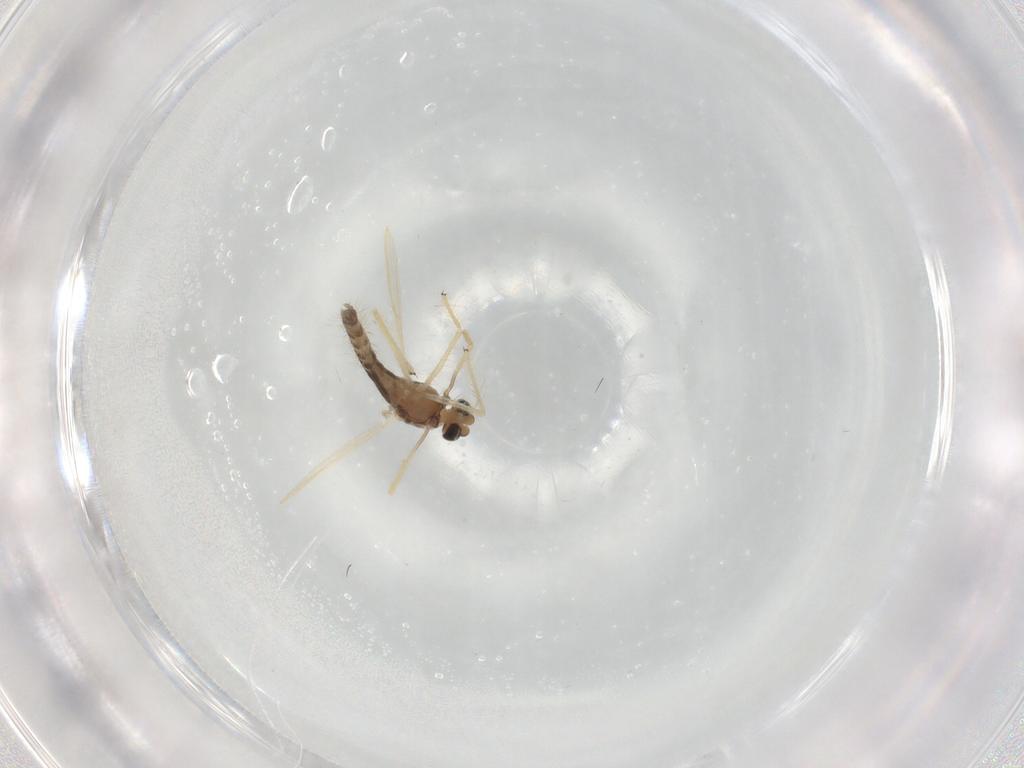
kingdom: Animalia
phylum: Arthropoda
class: Insecta
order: Diptera
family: Chironomidae
